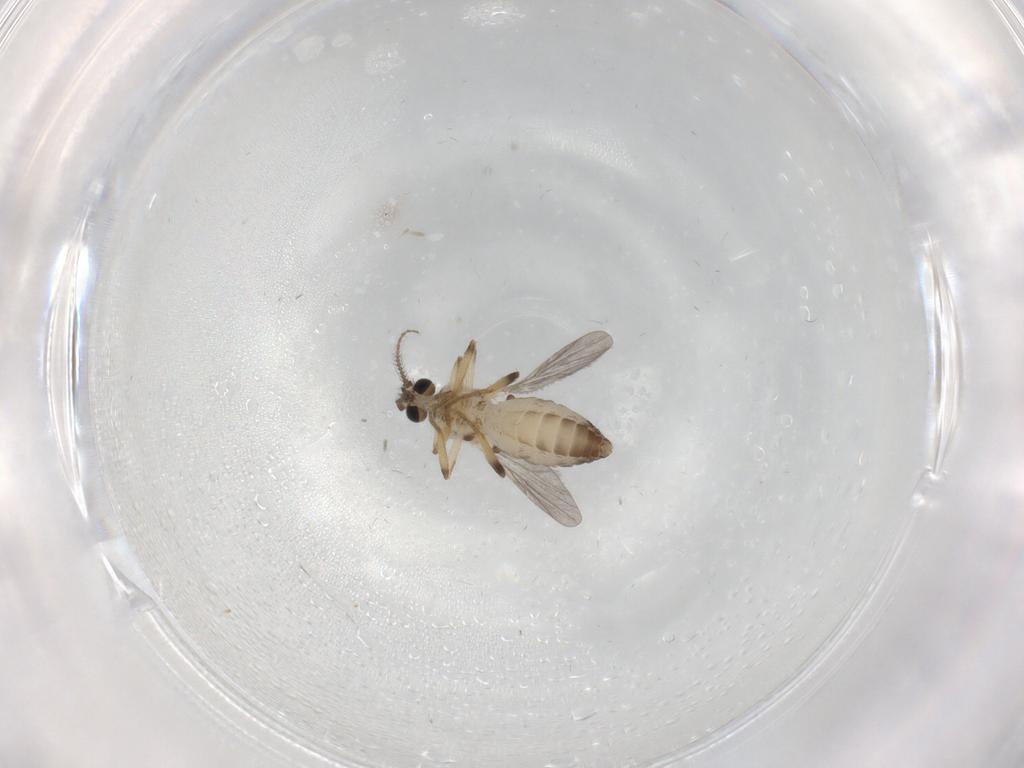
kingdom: Animalia
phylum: Arthropoda
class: Insecta
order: Diptera
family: Ceratopogonidae
